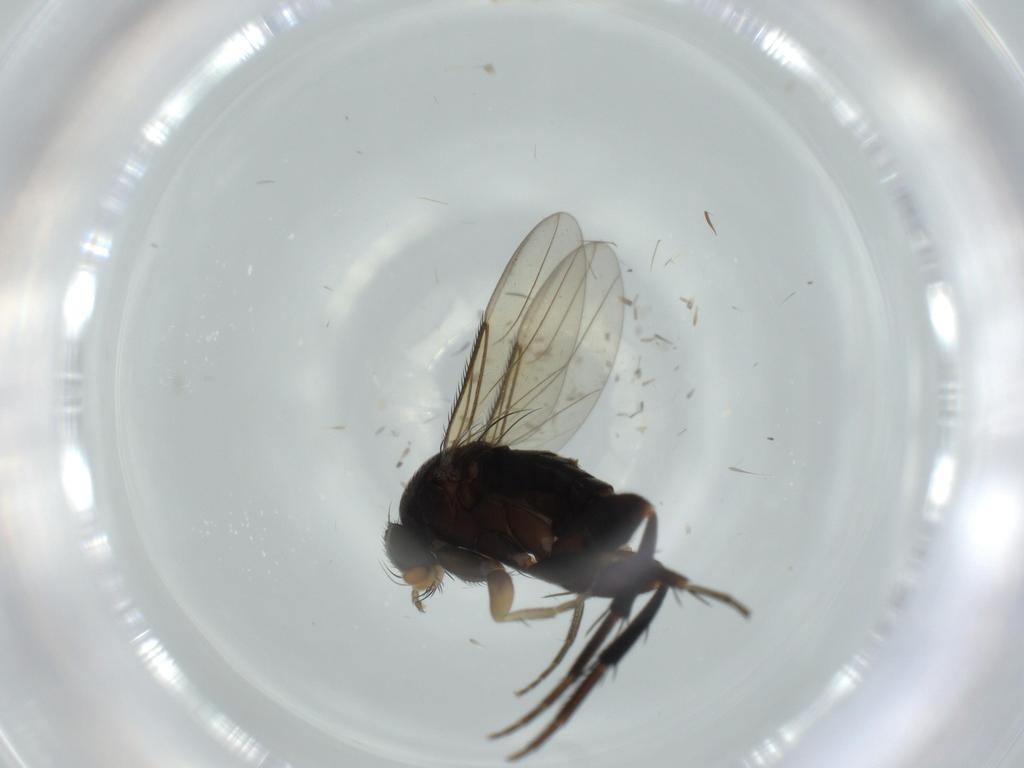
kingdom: Animalia
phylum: Arthropoda
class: Insecta
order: Diptera
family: Phoridae
